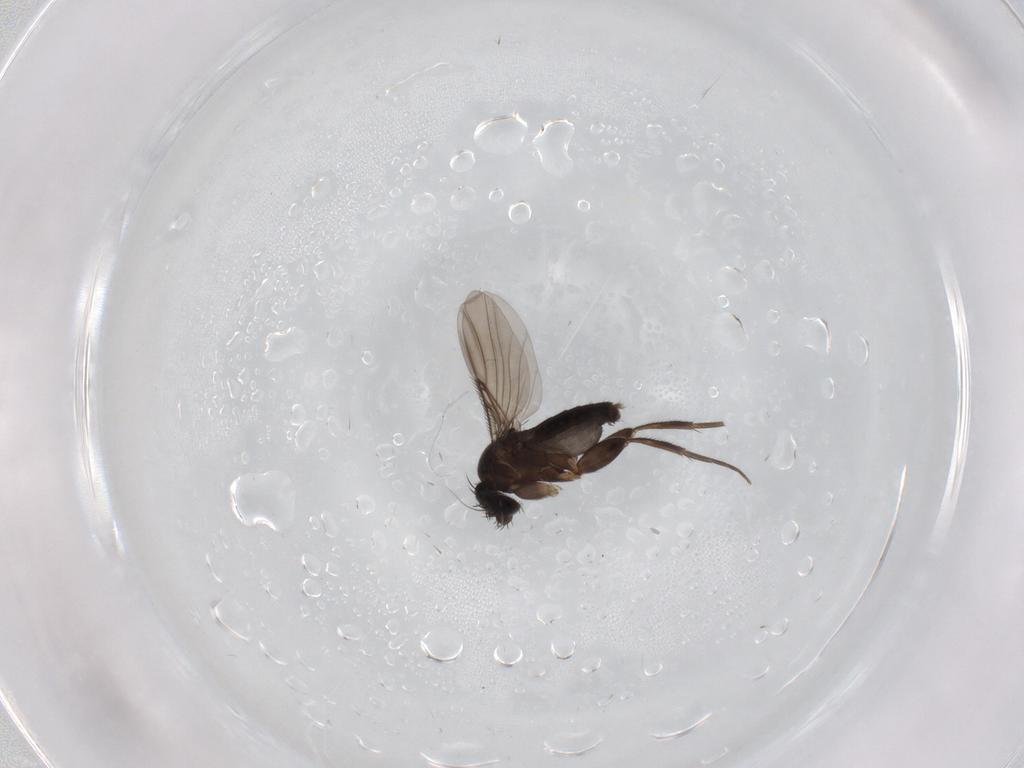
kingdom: Animalia
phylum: Arthropoda
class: Insecta
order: Diptera
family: Phoridae
